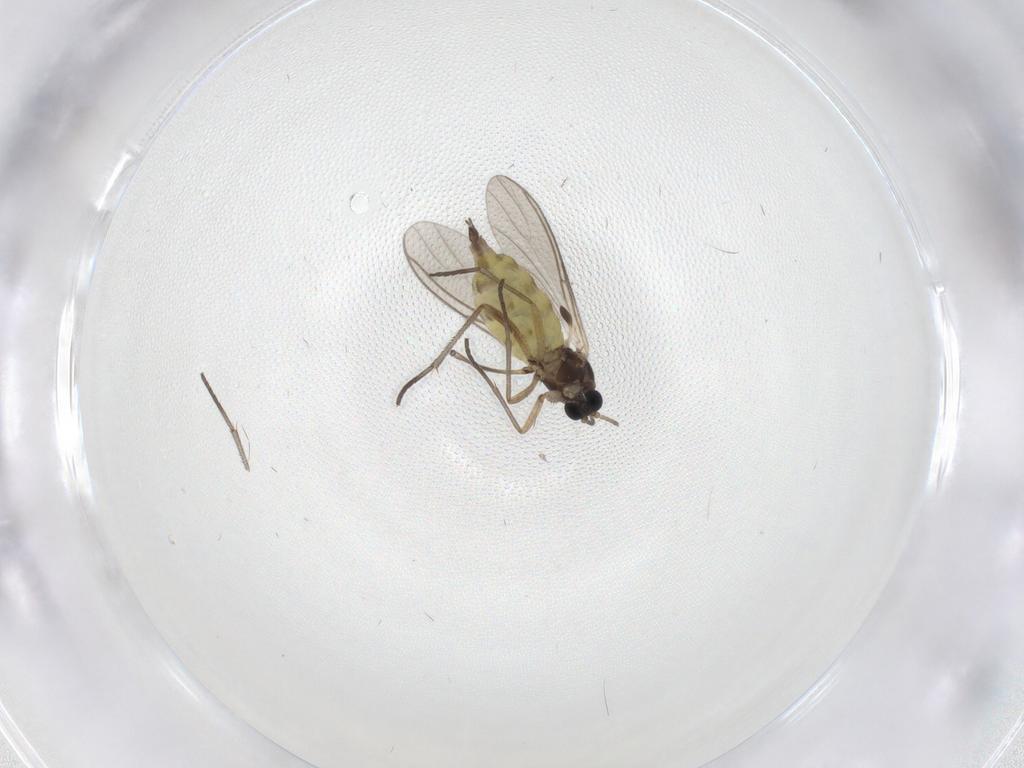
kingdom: Animalia
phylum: Arthropoda
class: Insecta
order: Diptera
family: Sciaridae
